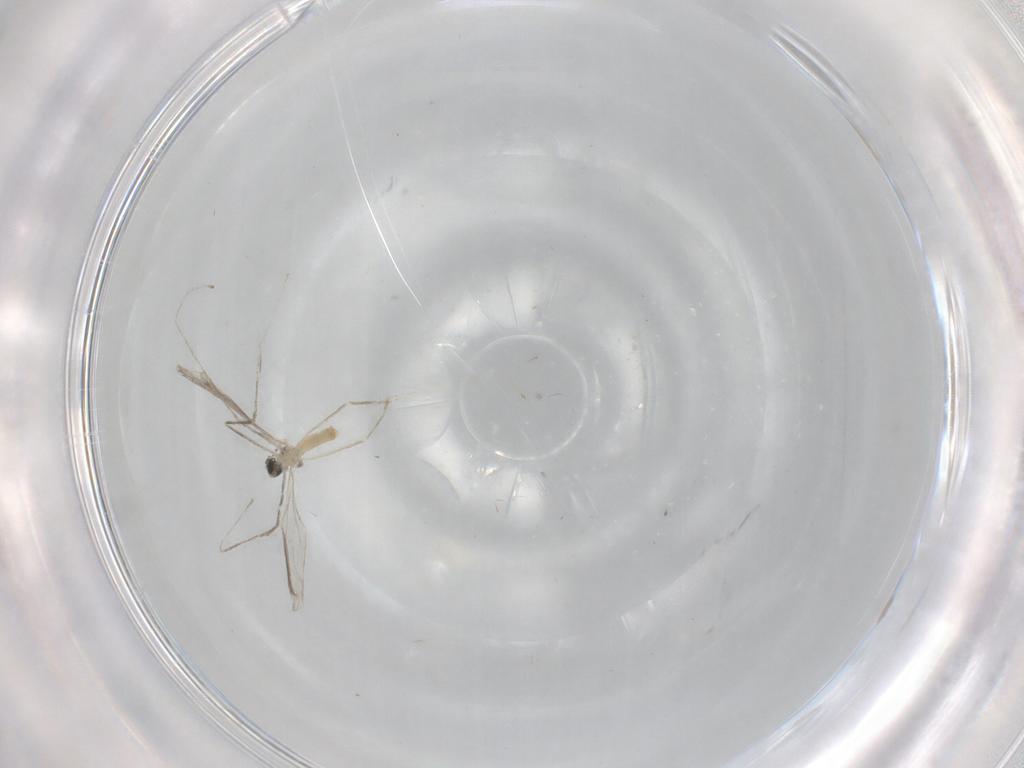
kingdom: Animalia
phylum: Arthropoda
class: Insecta
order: Diptera
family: Cecidomyiidae
